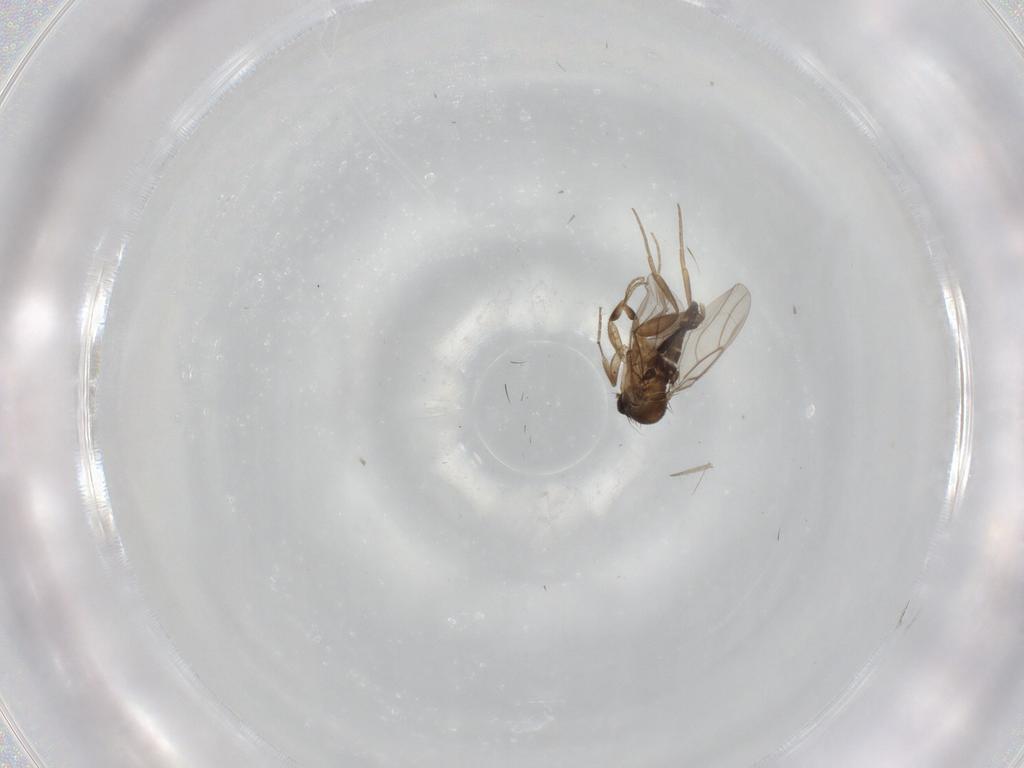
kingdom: Animalia
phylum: Arthropoda
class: Insecta
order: Diptera
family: Phoridae
